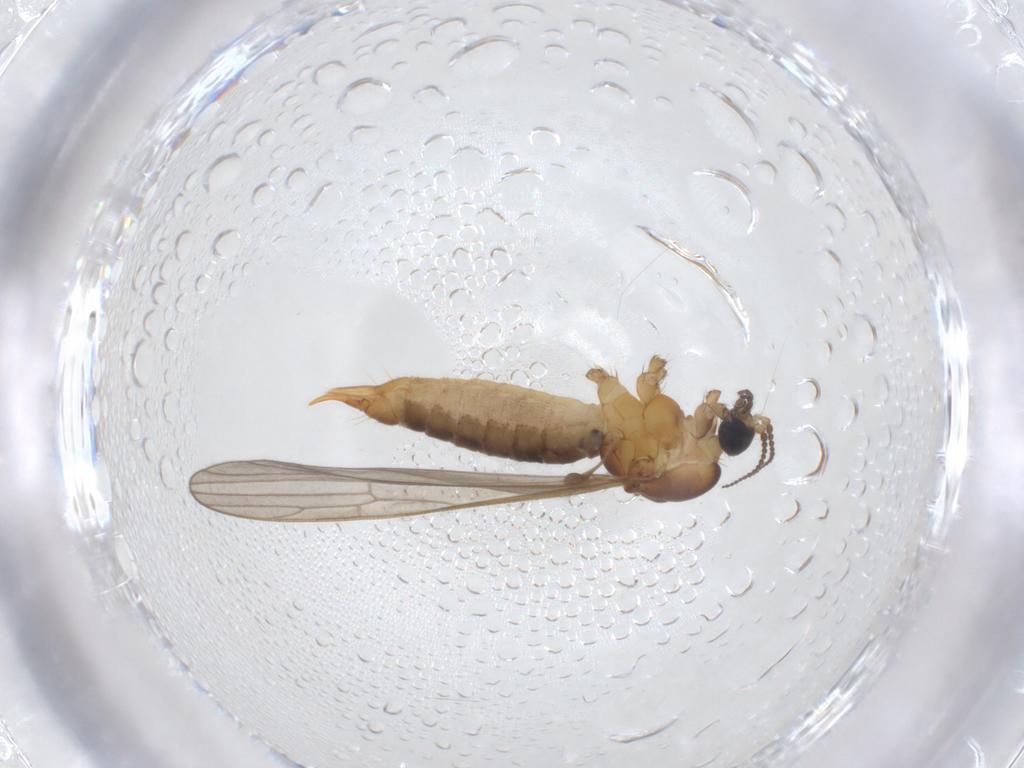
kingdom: Animalia
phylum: Arthropoda
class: Insecta
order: Diptera
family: Limoniidae
